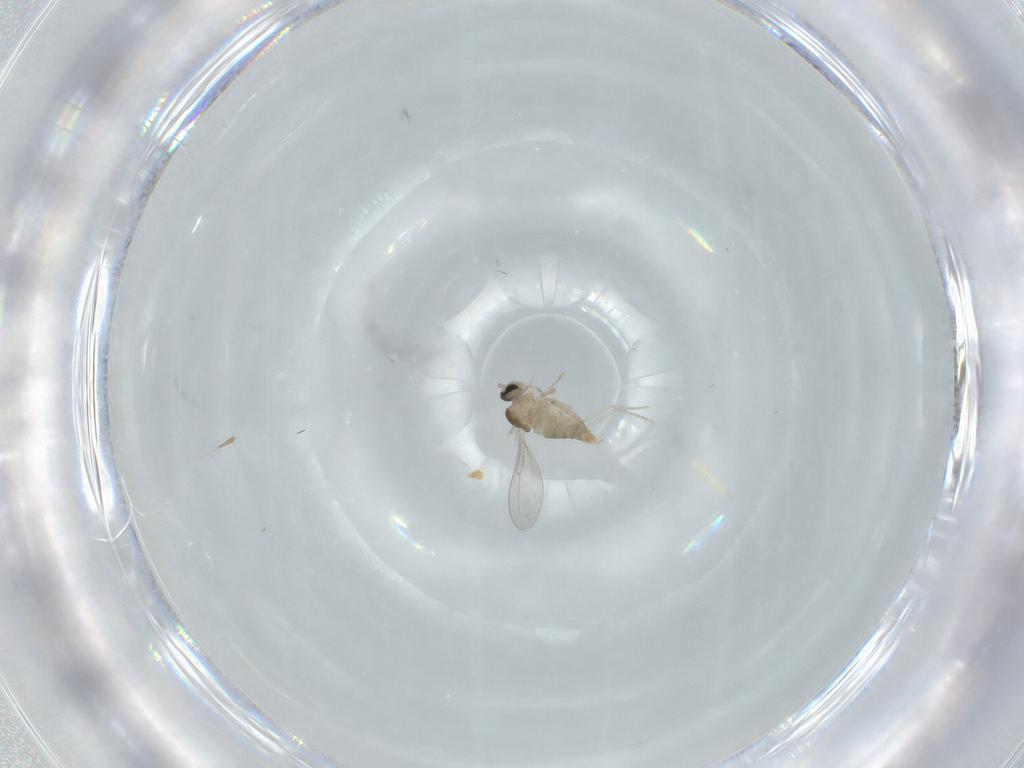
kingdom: Animalia
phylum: Arthropoda
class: Insecta
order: Diptera
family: Cecidomyiidae
